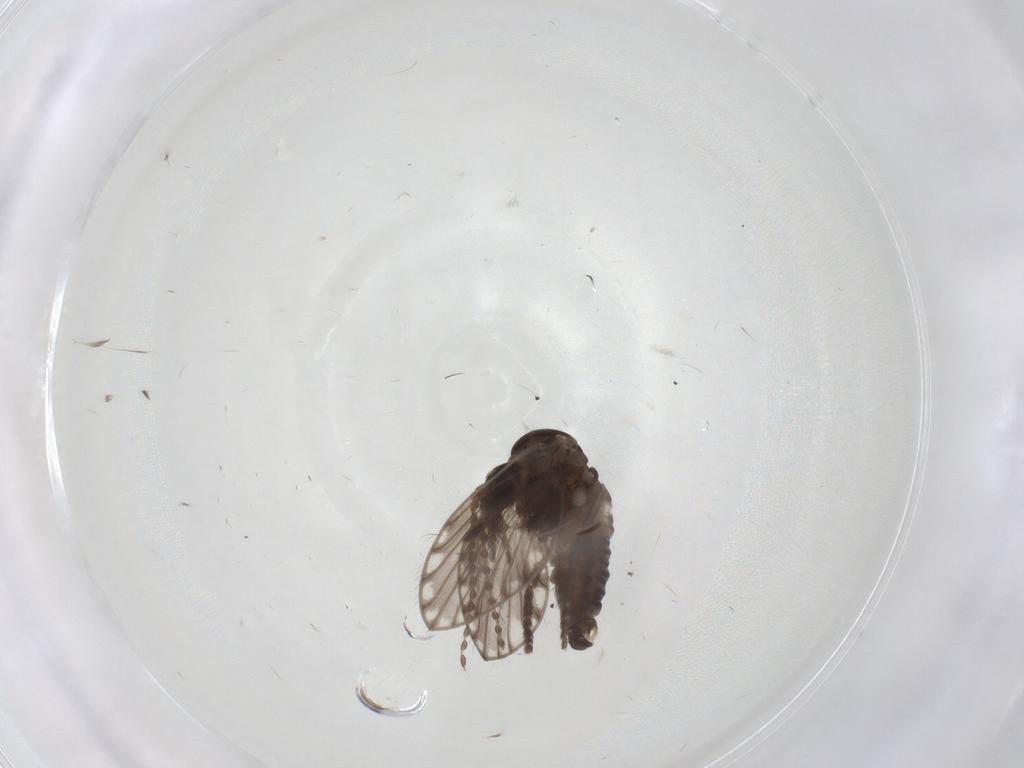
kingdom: Animalia
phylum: Arthropoda
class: Insecta
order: Diptera
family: Psychodidae
